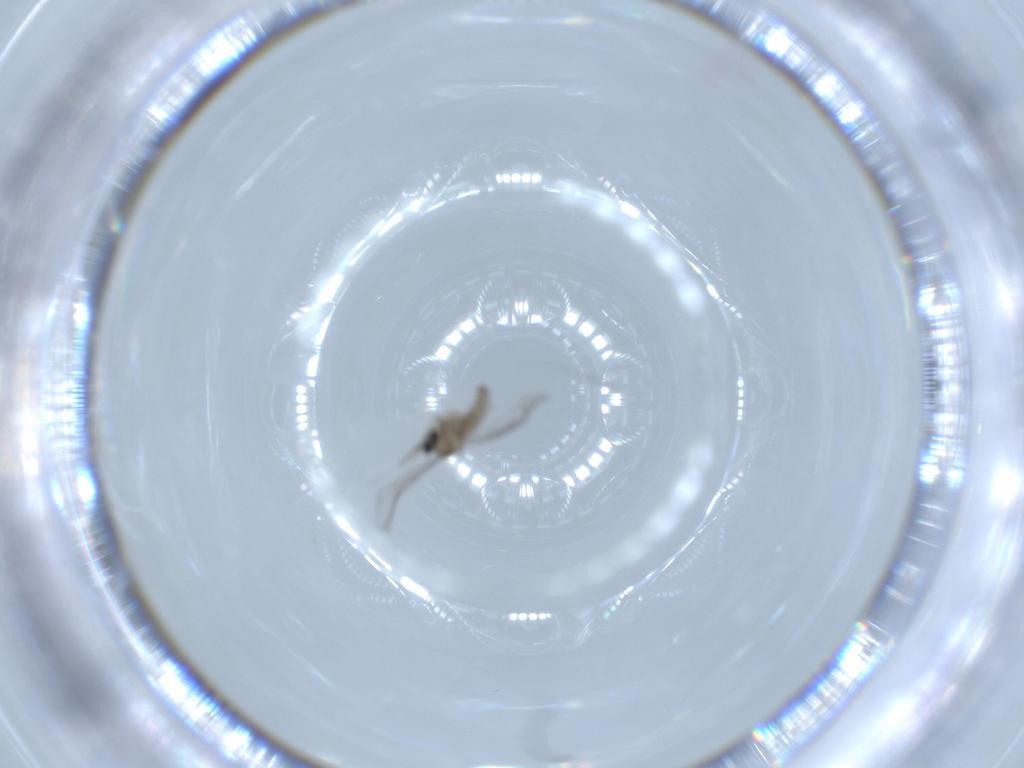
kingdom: Animalia
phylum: Arthropoda
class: Insecta
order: Diptera
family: Cecidomyiidae
